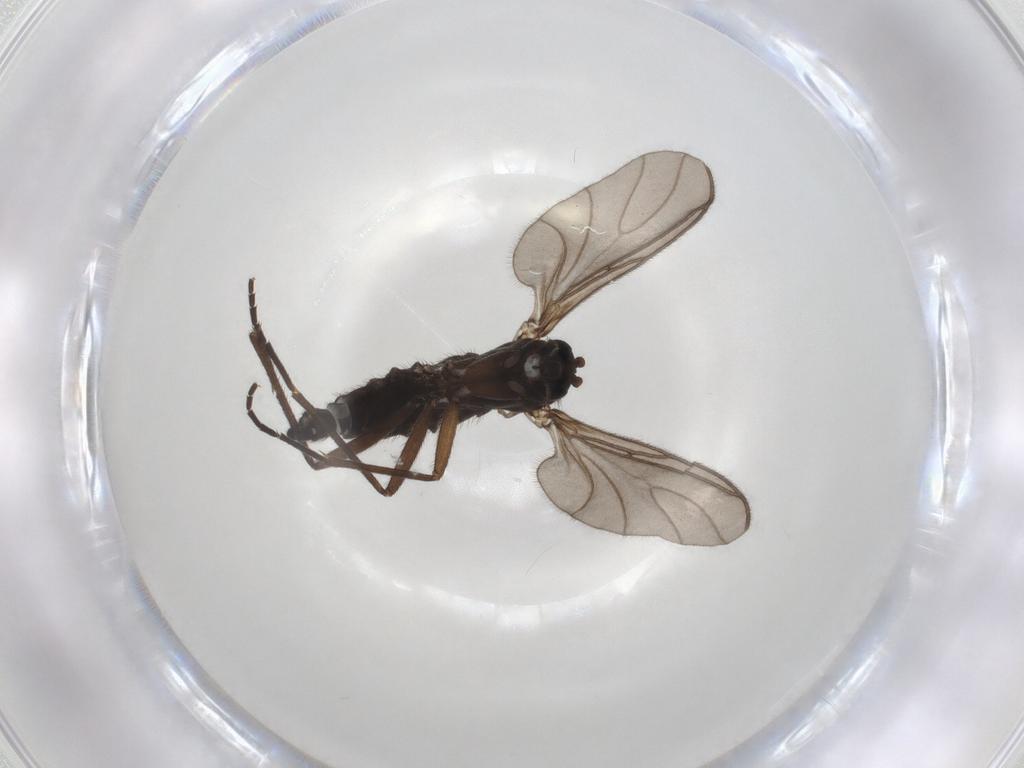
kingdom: Animalia
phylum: Arthropoda
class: Insecta
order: Diptera
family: Sciaridae
